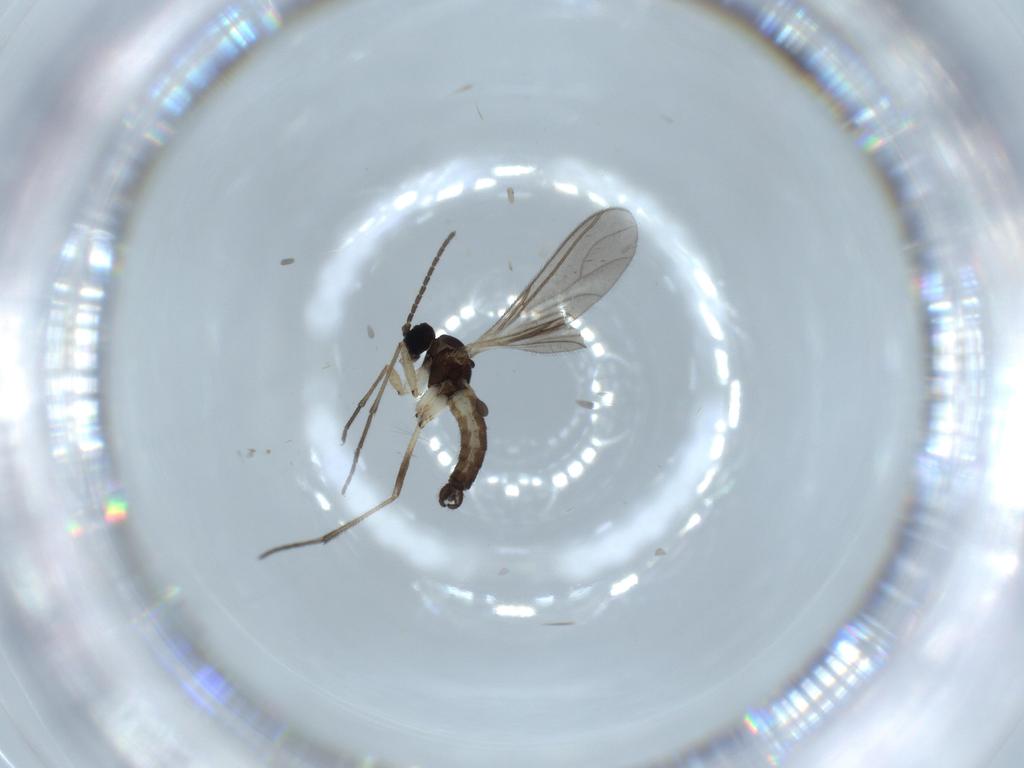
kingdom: Animalia
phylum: Arthropoda
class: Insecta
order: Diptera
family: Sciaridae
